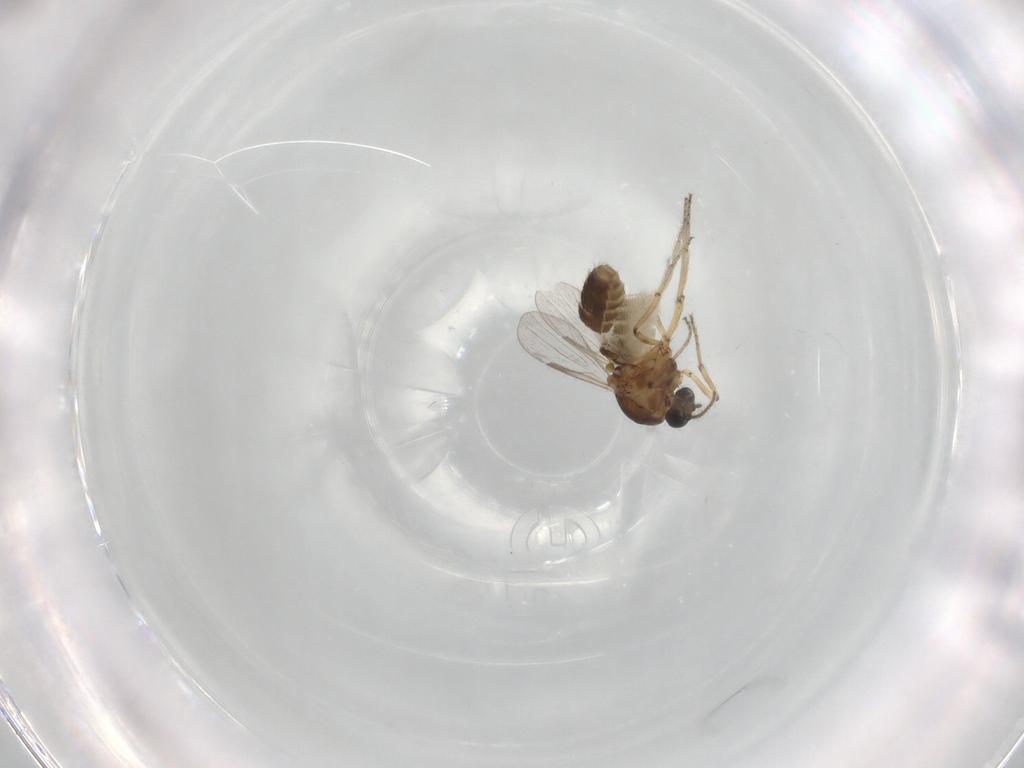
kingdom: Animalia
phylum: Arthropoda
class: Insecta
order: Diptera
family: Ceratopogonidae
